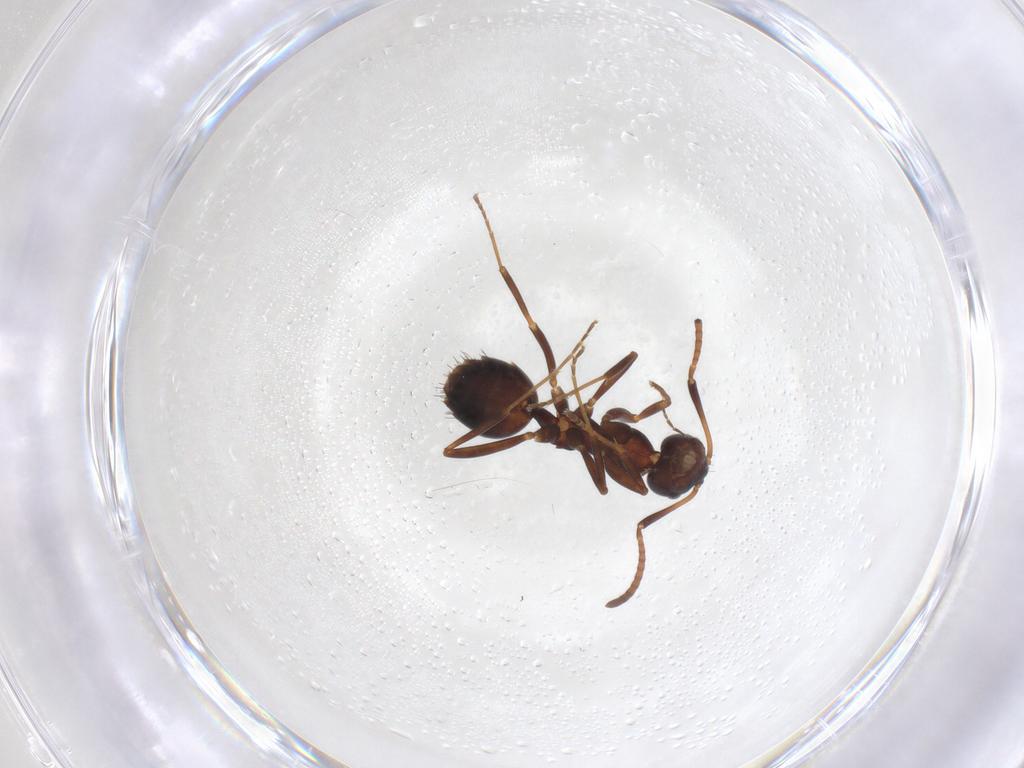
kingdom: Animalia
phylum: Arthropoda
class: Insecta
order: Hymenoptera
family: Formicidae
